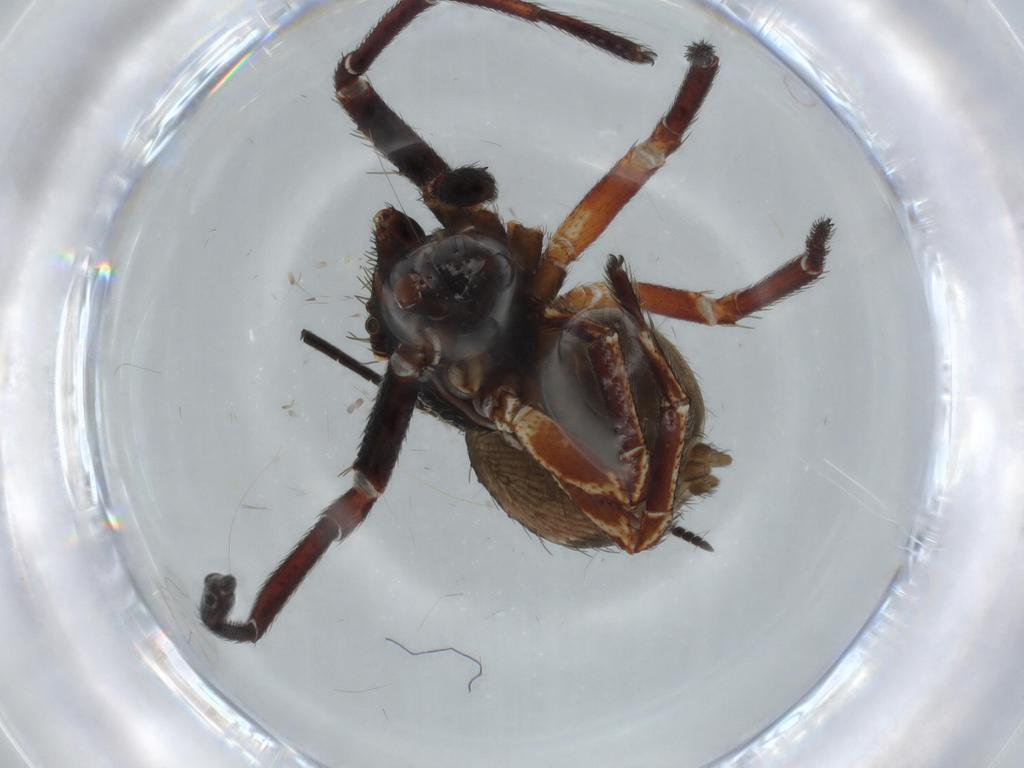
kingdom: Animalia
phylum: Arthropoda
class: Arachnida
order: Araneae
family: Thomisidae
